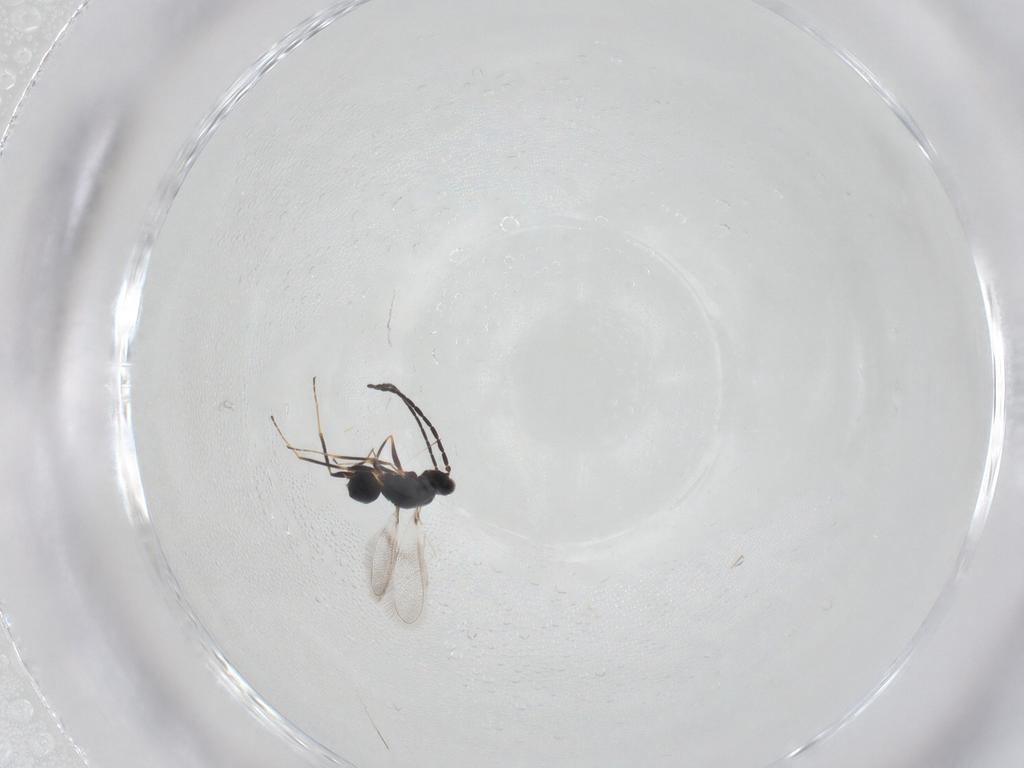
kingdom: Animalia
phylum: Arthropoda
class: Insecta
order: Hymenoptera
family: Mymaridae
